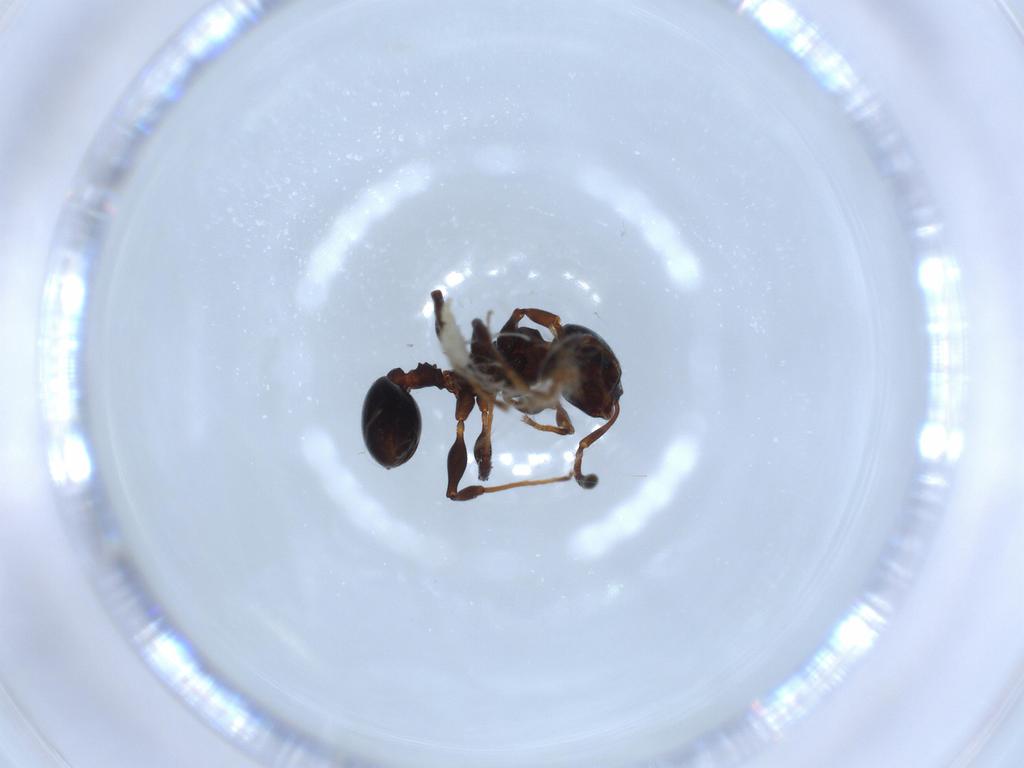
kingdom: Animalia
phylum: Arthropoda
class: Insecta
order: Hymenoptera
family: Formicidae
